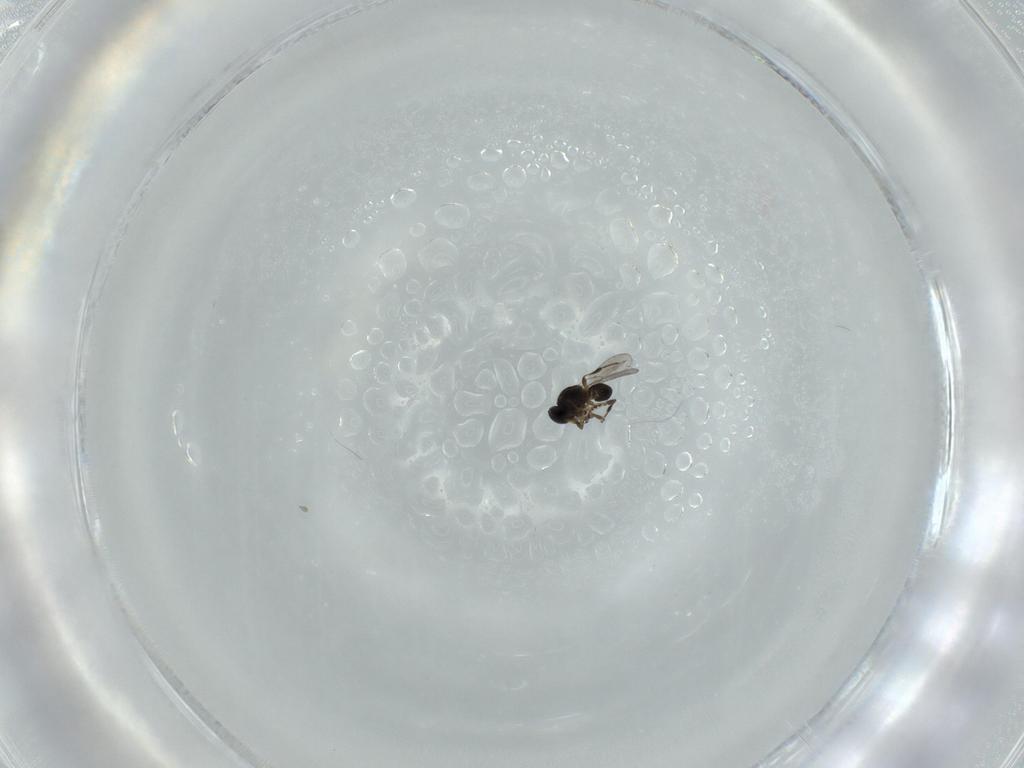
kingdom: Animalia
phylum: Arthropoda
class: Insecta
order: Hymenoptera
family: Platygastridae
